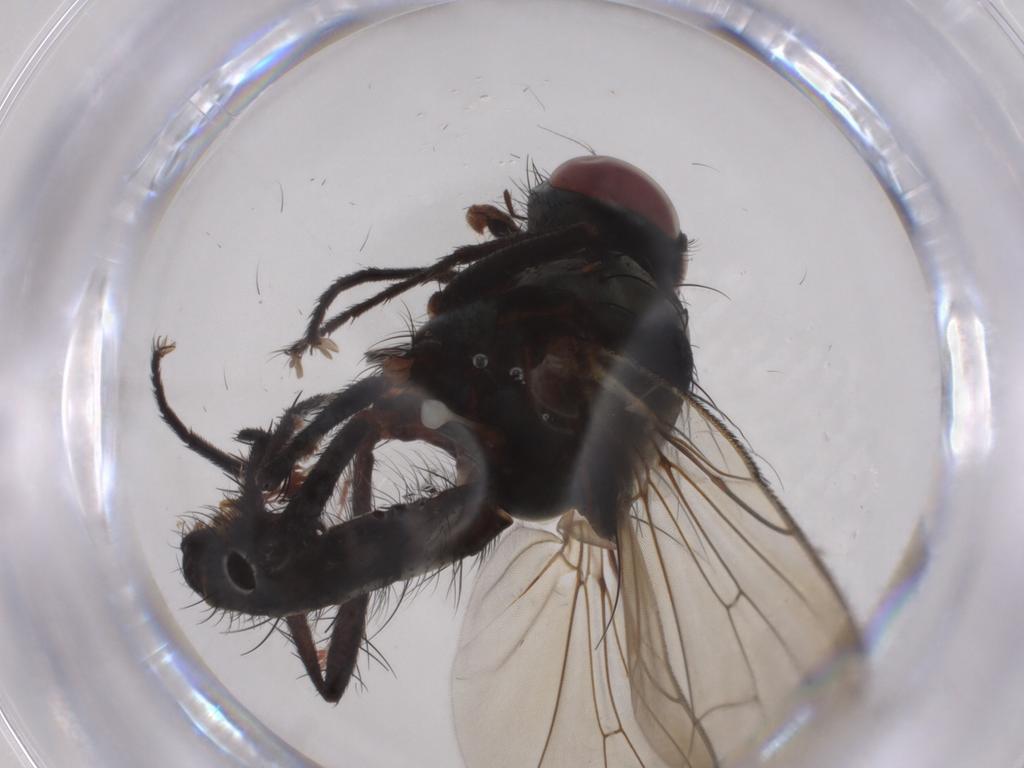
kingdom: Animalia
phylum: Arthropoda
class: Insecta
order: Diptera
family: Anthomyiidae
